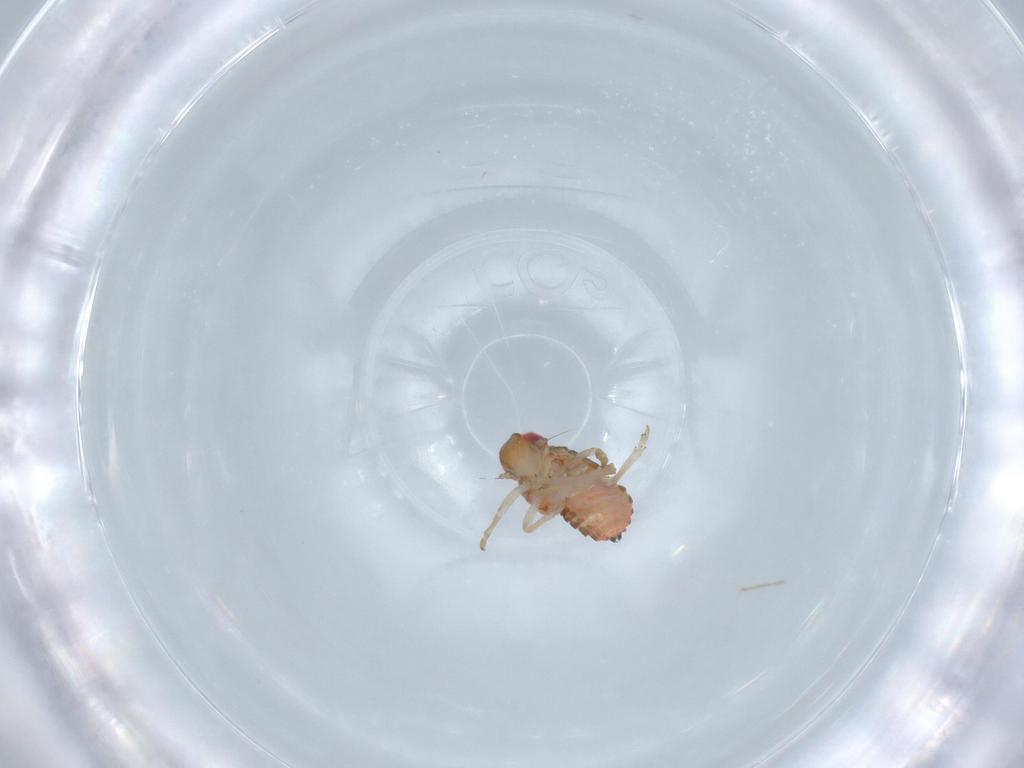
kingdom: Animalia
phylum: Arthropoda
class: Insecta
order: Hemiptera
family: Issidae
